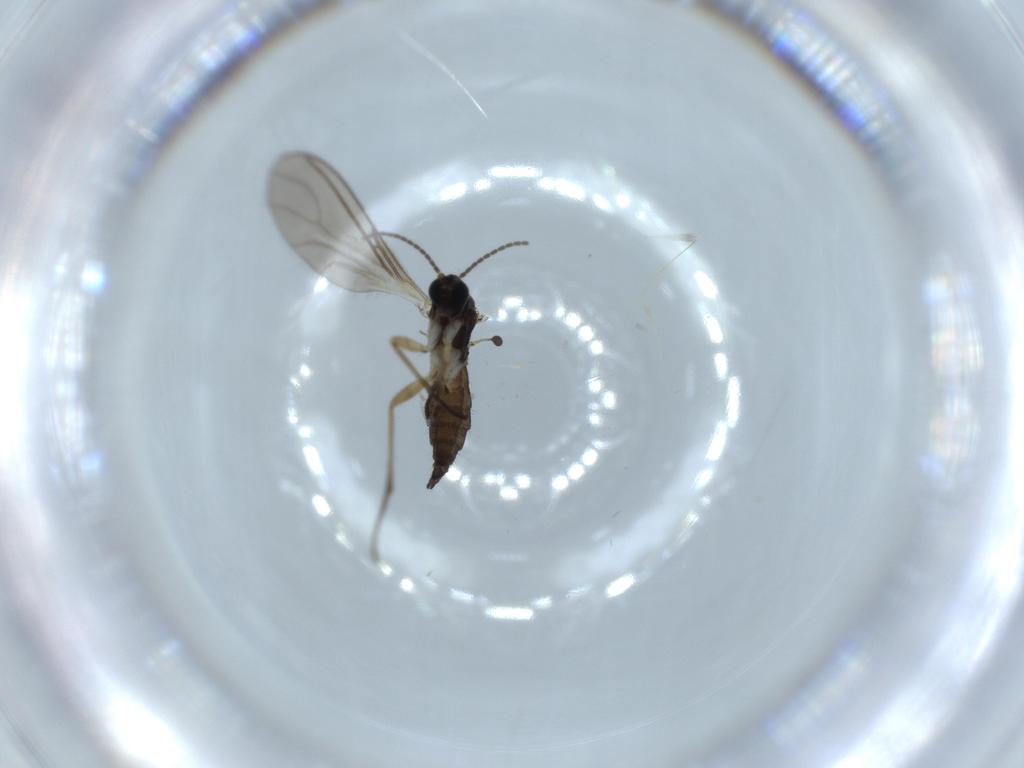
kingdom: Animalia
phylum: Arthropoda
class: Insecta
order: Diptera
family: Sciaridae
